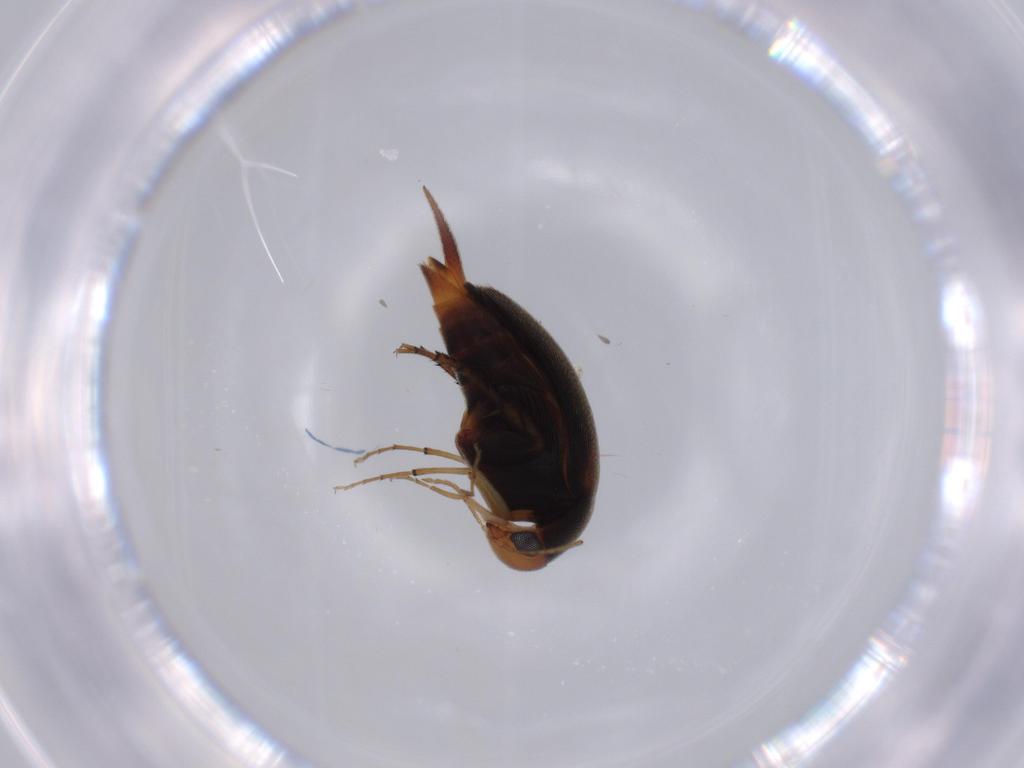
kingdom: Animalia
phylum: Arthropoda
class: Insecta
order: Coleoptera
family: Mordellidae
